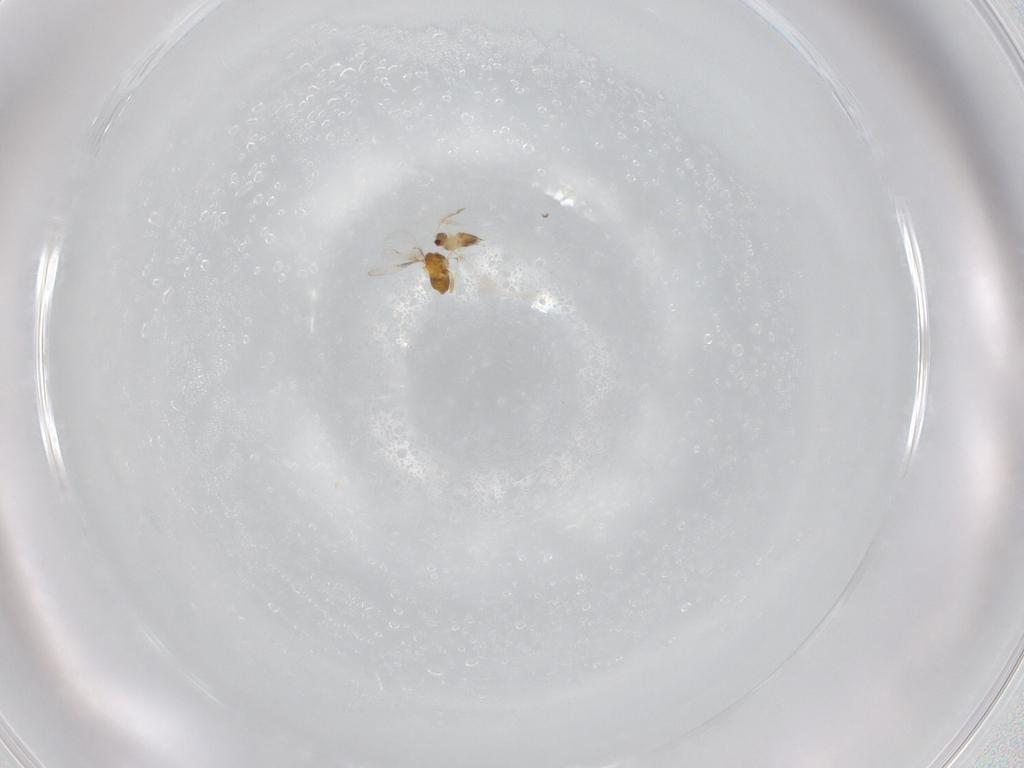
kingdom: Animalia
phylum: Arthropoda
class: Insecta
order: Hymenoptera
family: Trichogrammatidae
